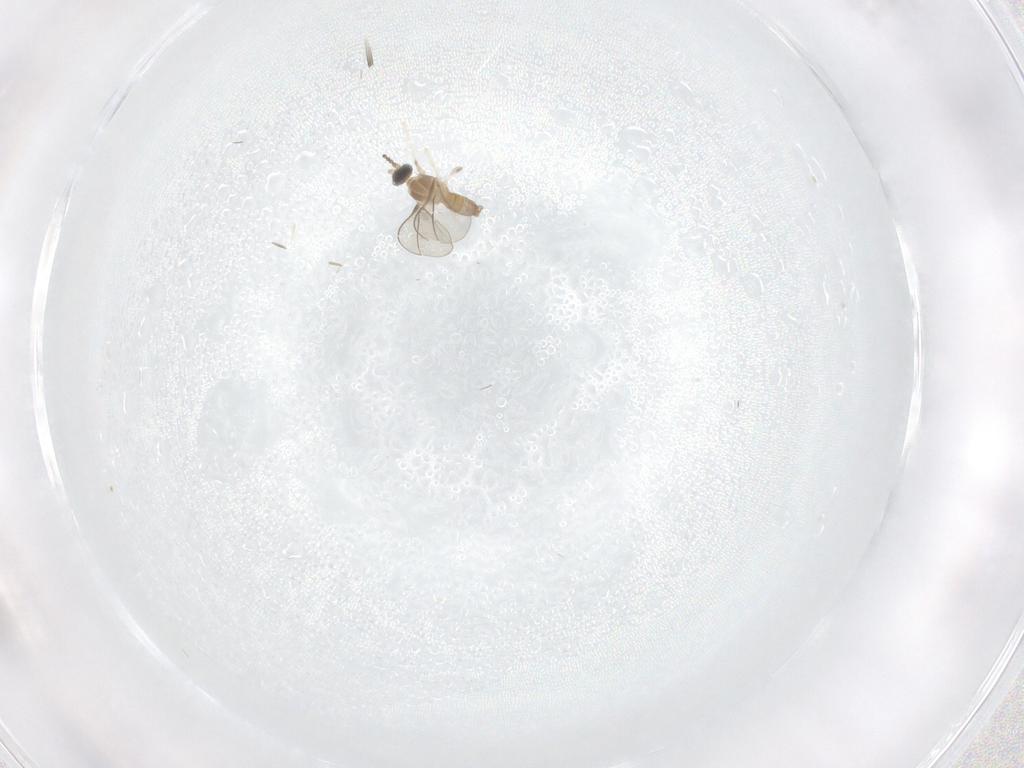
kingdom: Animalia
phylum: Arthropoda
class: Insecta
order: Diptera
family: Cecidomyiidae
